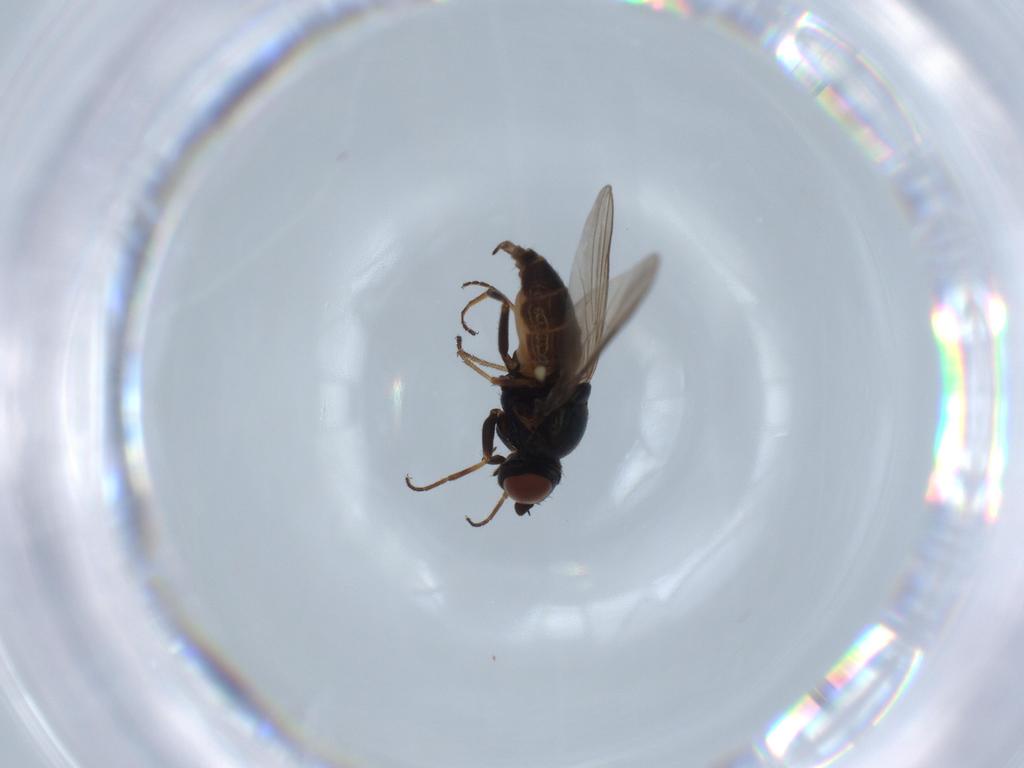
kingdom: Animalia
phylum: Arthropoda
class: Insecta
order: Diptera
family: Chloropidae
